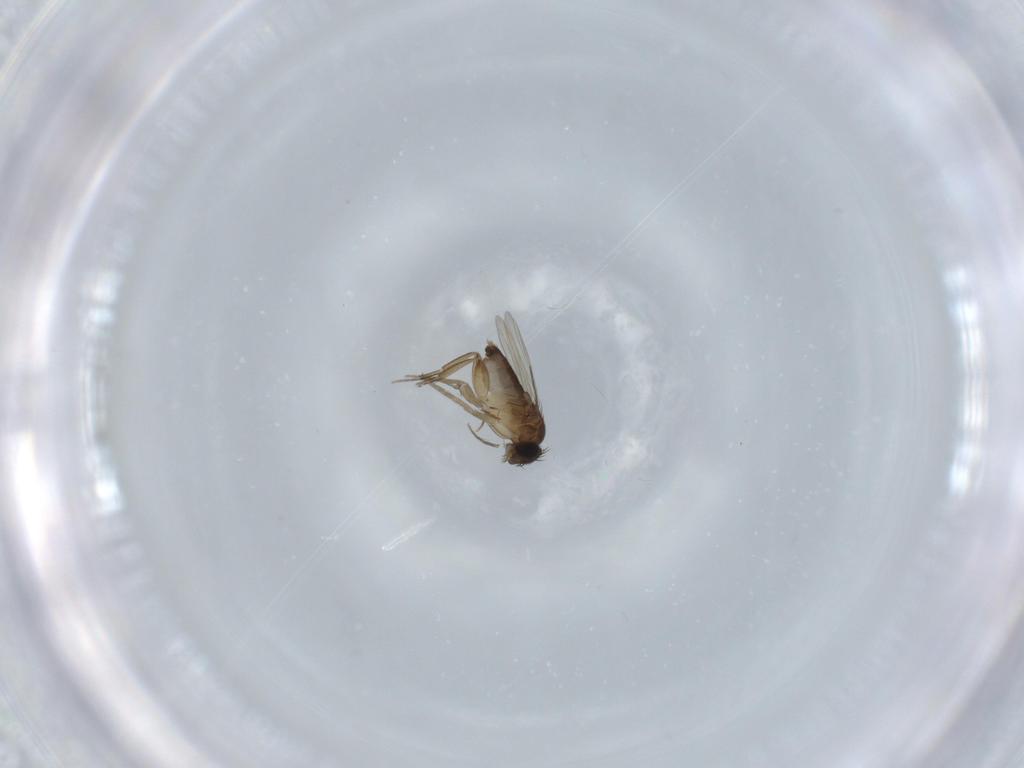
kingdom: Animalia
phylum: Arthropoda
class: Insecta
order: Diptera
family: Phoridae
